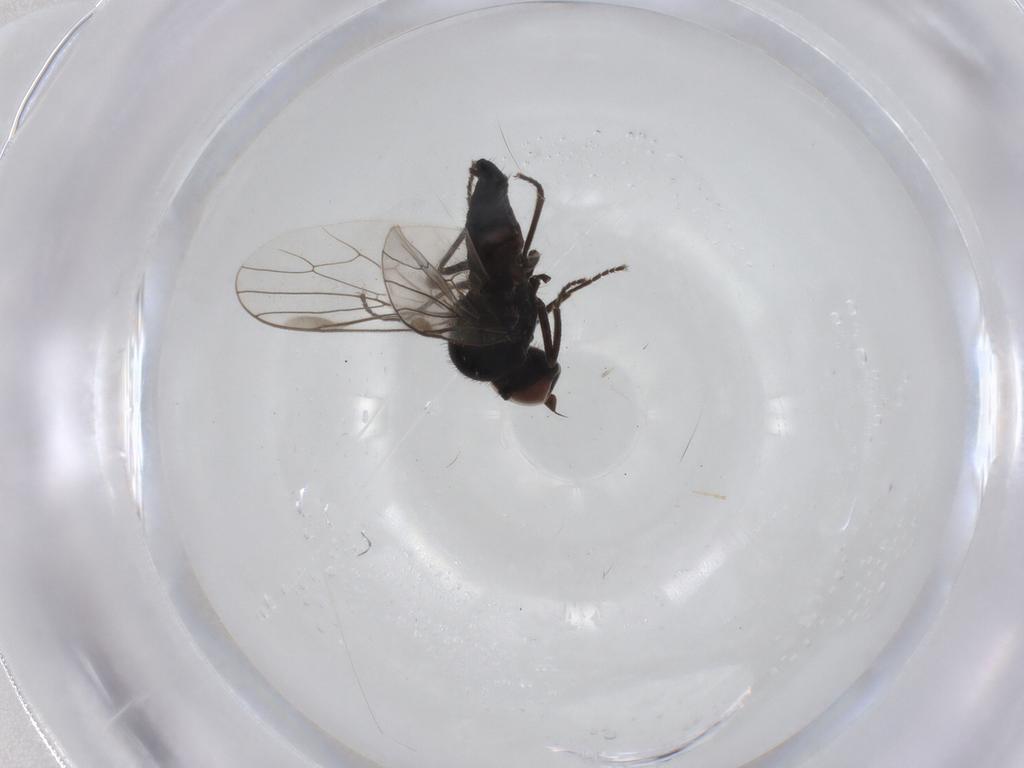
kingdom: Animalia
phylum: Arthropoda
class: Insecta
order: Diptera
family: Hybotidae
